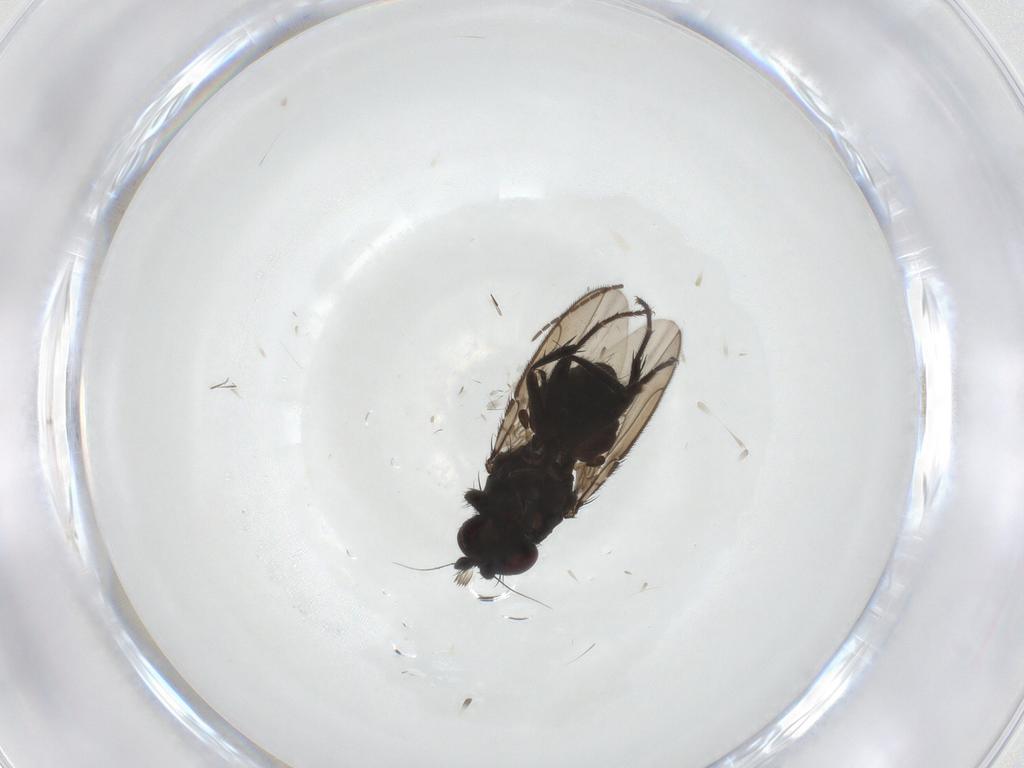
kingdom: Animalia
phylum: Arthropoda
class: Insecta
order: Diptera
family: Sphaeroceridae
